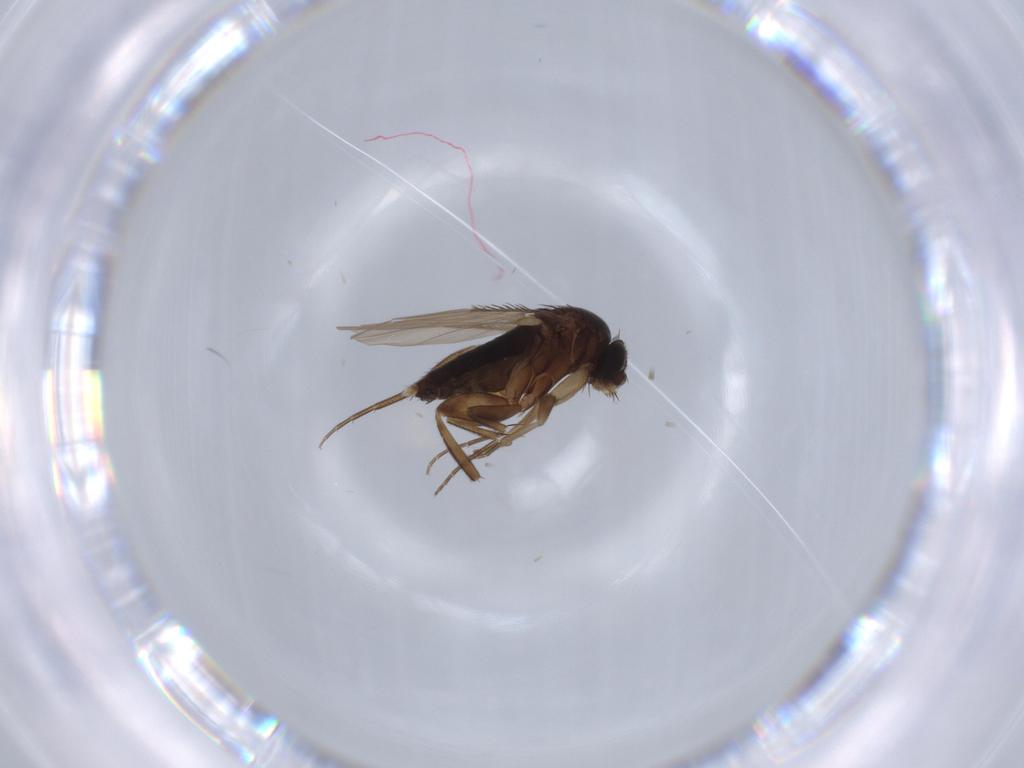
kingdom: Animalia
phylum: Arthropoda
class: Insecta
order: Diptera
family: Phoridae
